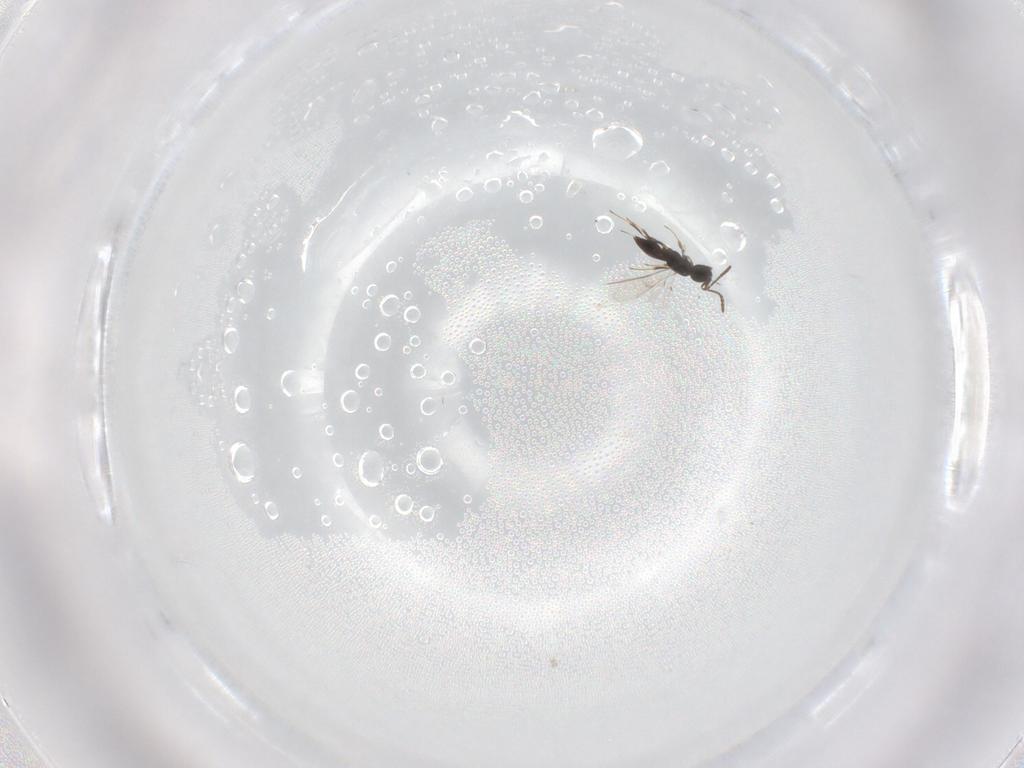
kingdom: Animalia
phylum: Arthropoda
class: Insecta
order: Hymenoptera
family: Scelionidae
